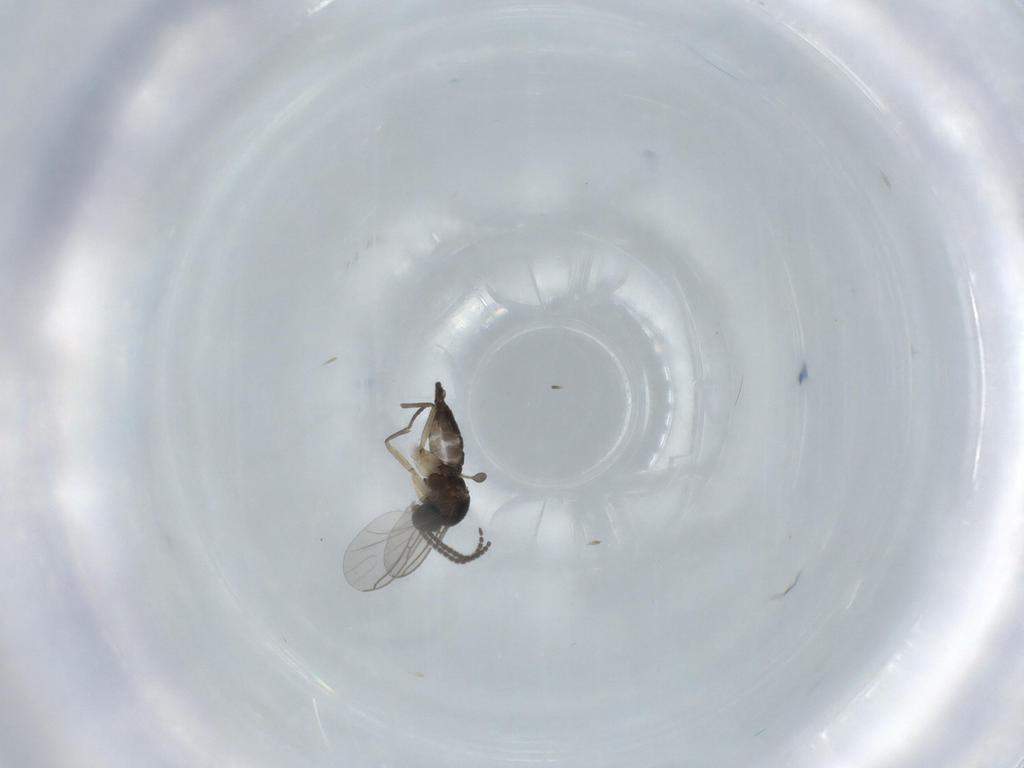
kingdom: Animalia
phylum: Arthropoda
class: Insecta
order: Diptera
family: Sciaridae
